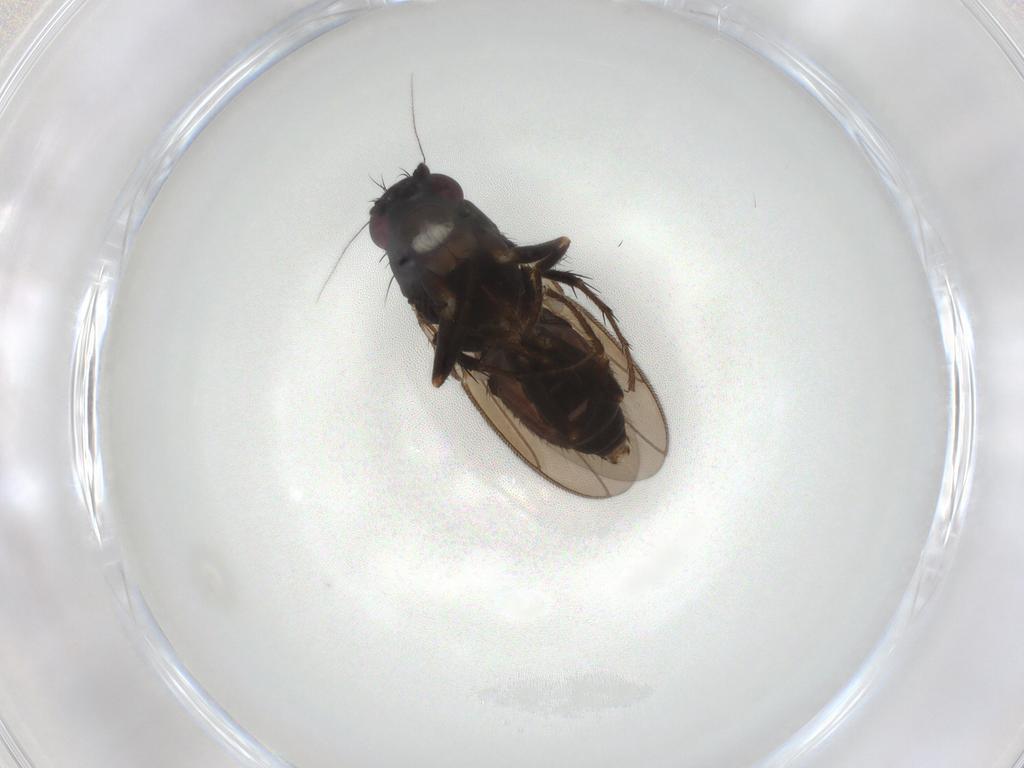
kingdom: Animalia
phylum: Arthropoda
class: Insecta
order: Diptera
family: Sphaeroceridae
